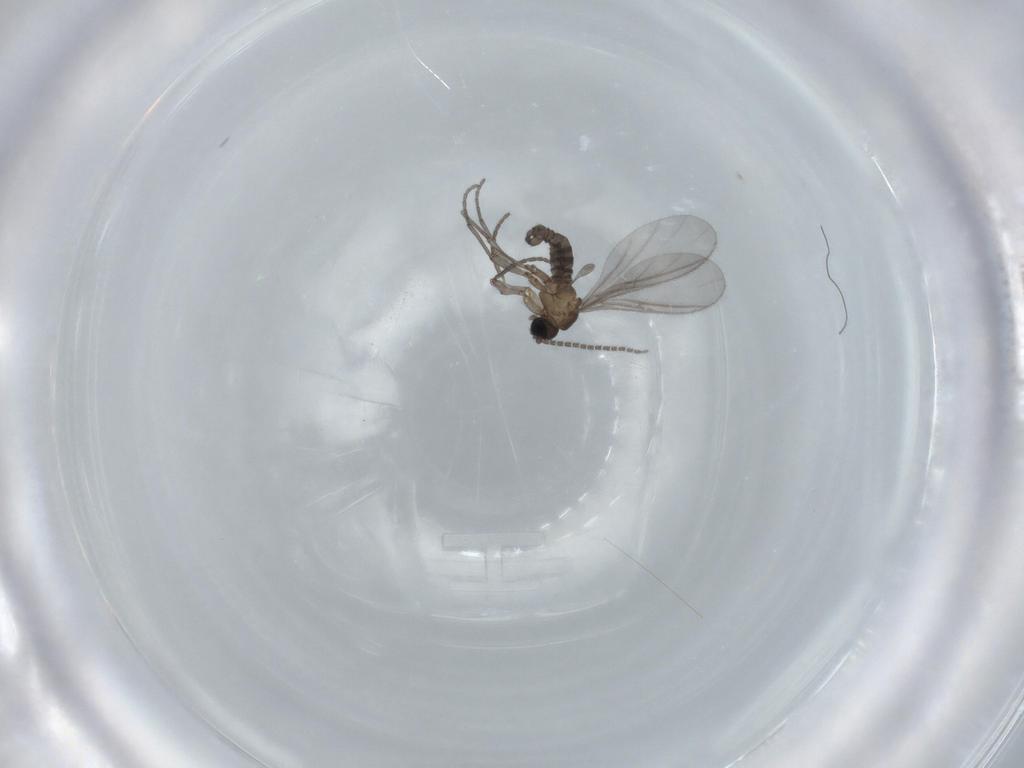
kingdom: Animalia
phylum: Arthropoda
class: Insecta
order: Diptera
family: Sciaridae
